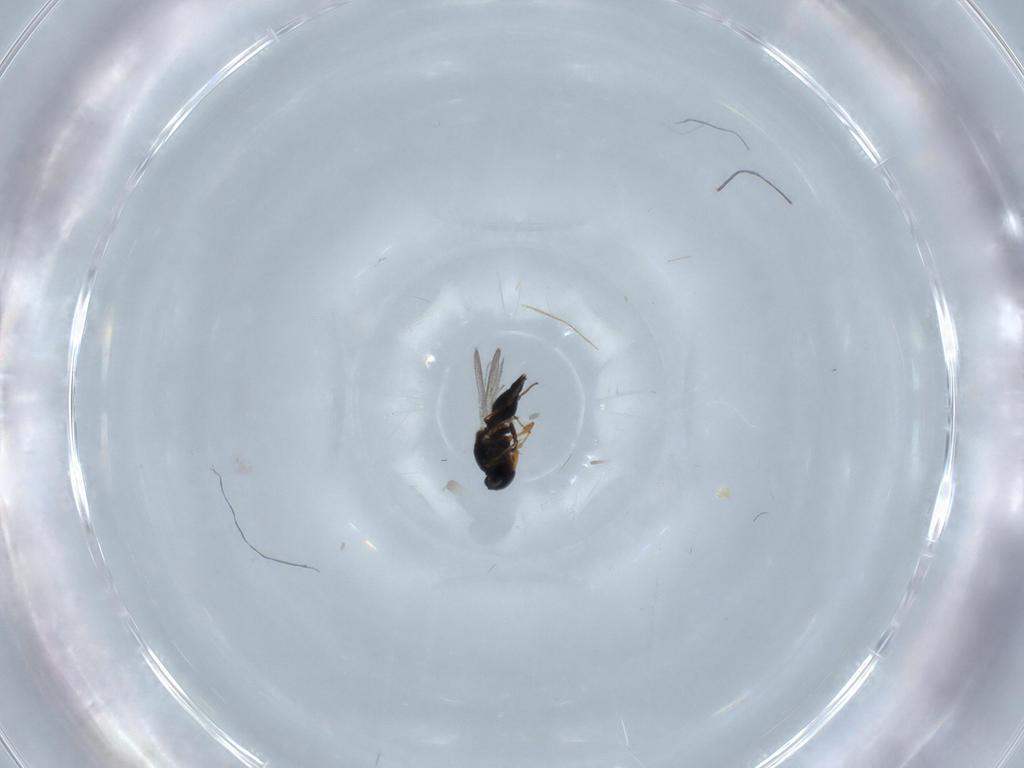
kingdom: Animalia
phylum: Arthropoda
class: Insecta
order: Hymenoptera
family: Platygastridae
